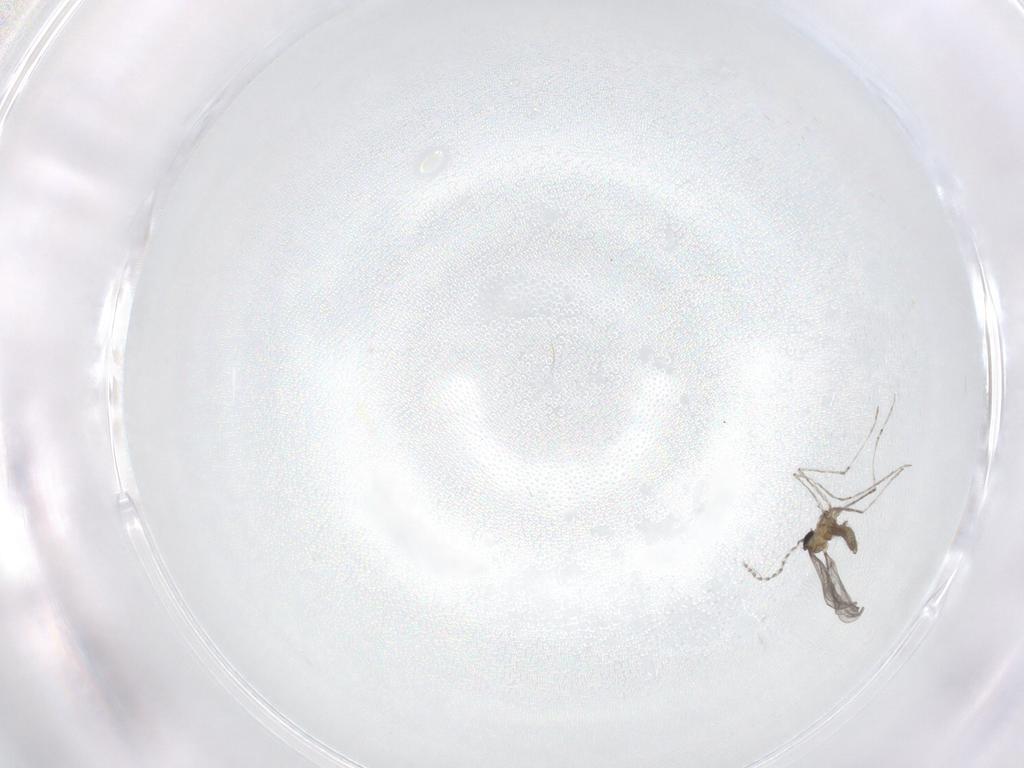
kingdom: Animalia
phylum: Arthropoda
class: Insecta
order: Diptera
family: Cecidomyiidae
